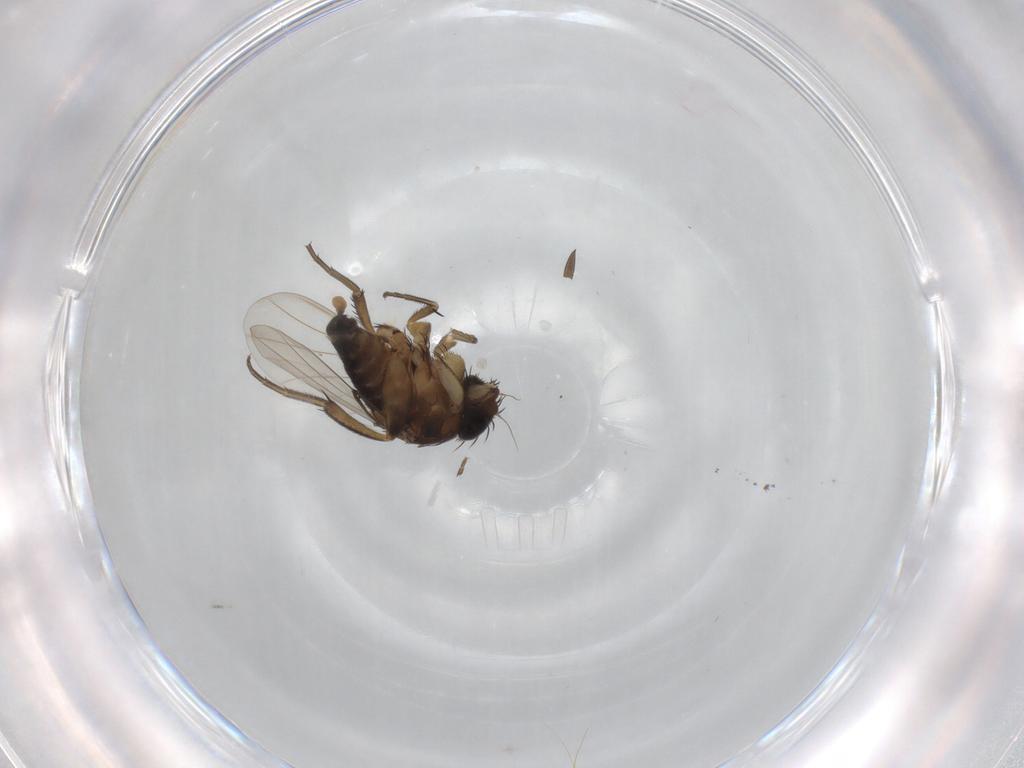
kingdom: Animalia
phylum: Arthropoda
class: Insecta
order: Diptera
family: Phoridae
